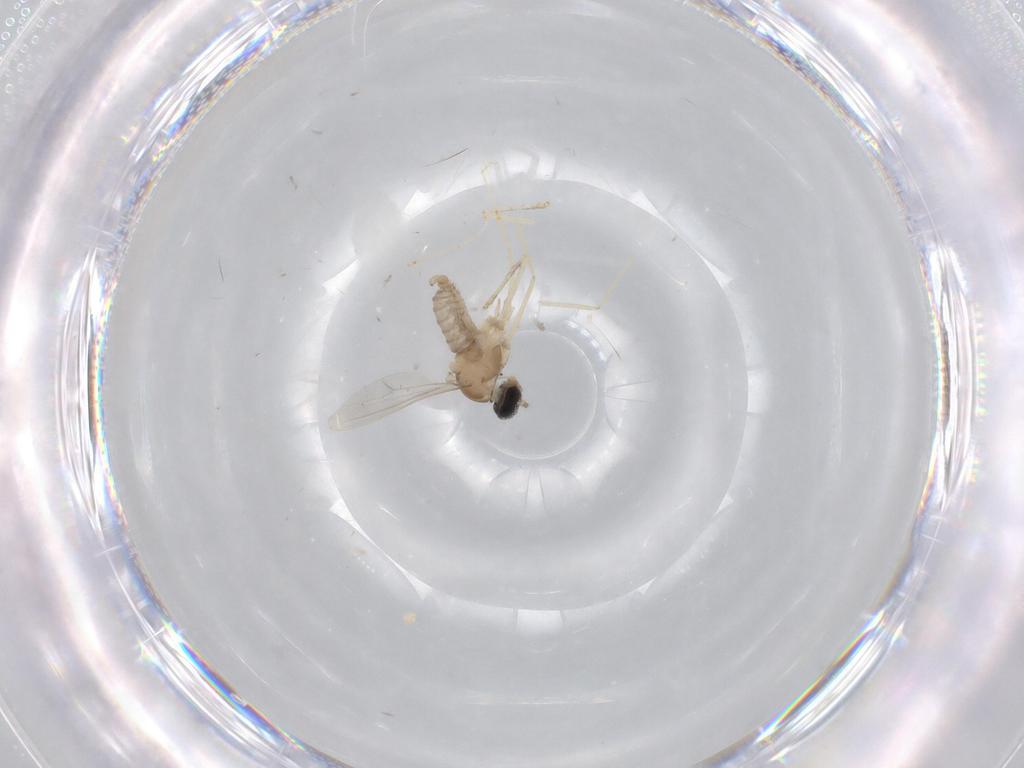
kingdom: Animalia
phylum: Arthropoda
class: Insecta
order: Diptera
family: Cecidomyiidae
